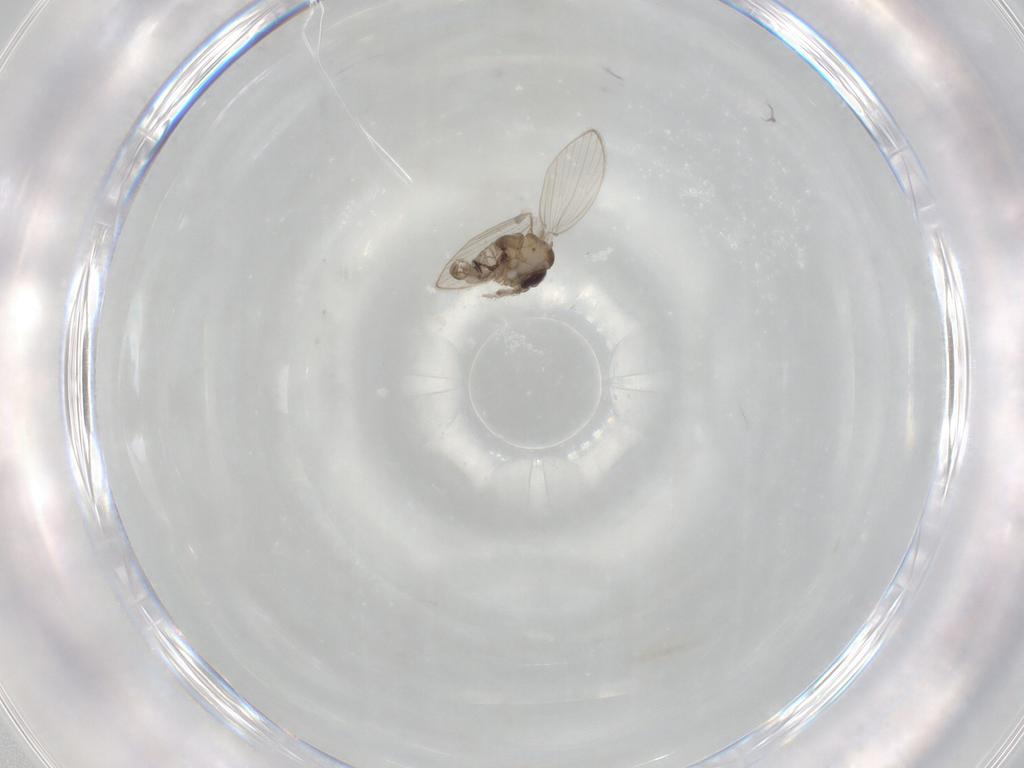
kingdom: Animalia
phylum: Arthropoda
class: Insecta
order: Diptera
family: Psychodidae
